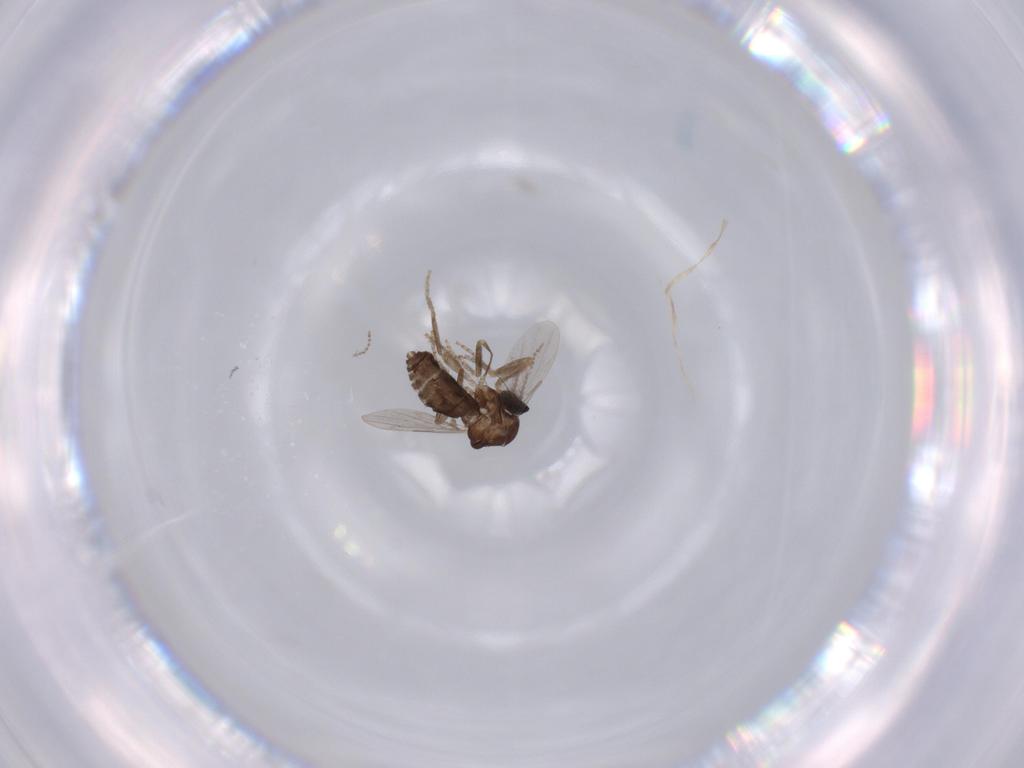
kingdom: Animalia
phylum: Arthropoda
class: Insecta
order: Diptera
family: Ceratopogonidae
